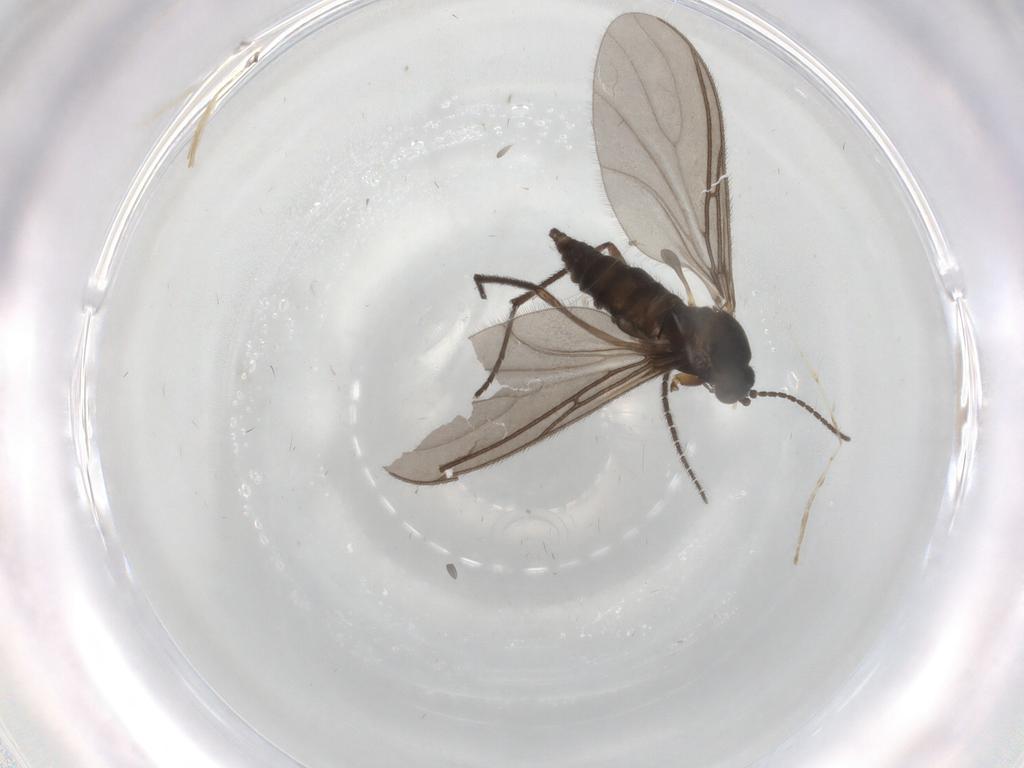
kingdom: Animalia
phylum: Arthropoda
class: Insecta
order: Diptera
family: Sciaridae
